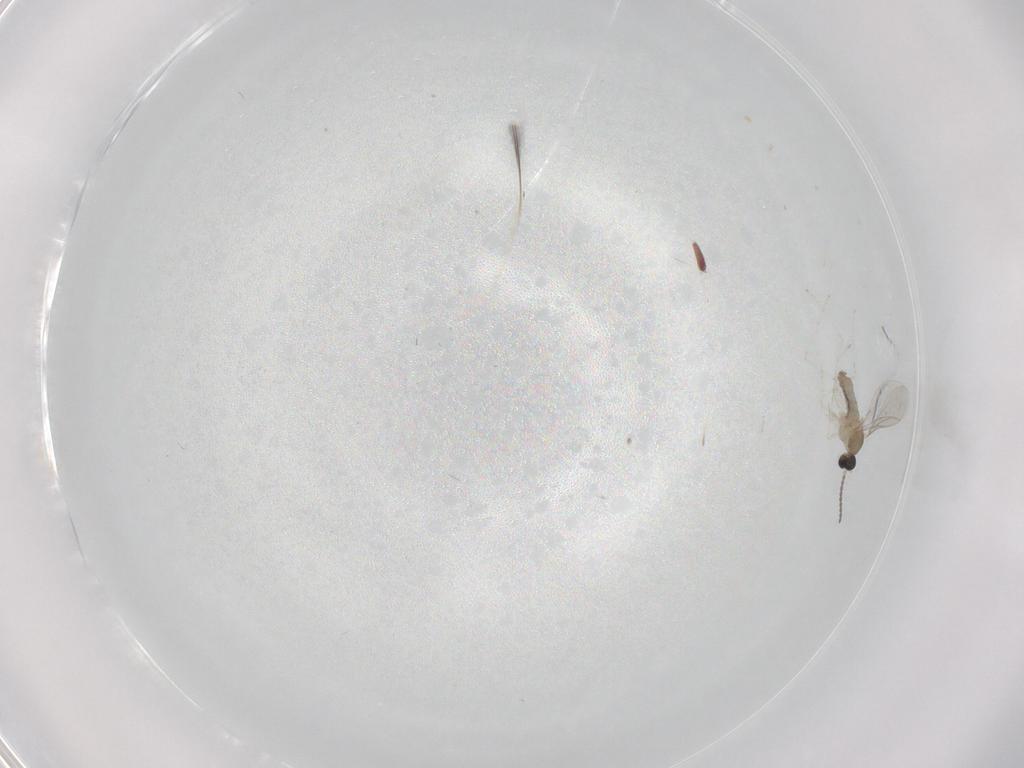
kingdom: Animalia
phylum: Arthropoda
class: Insecta
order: Diptera
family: Cecidomyiidae
